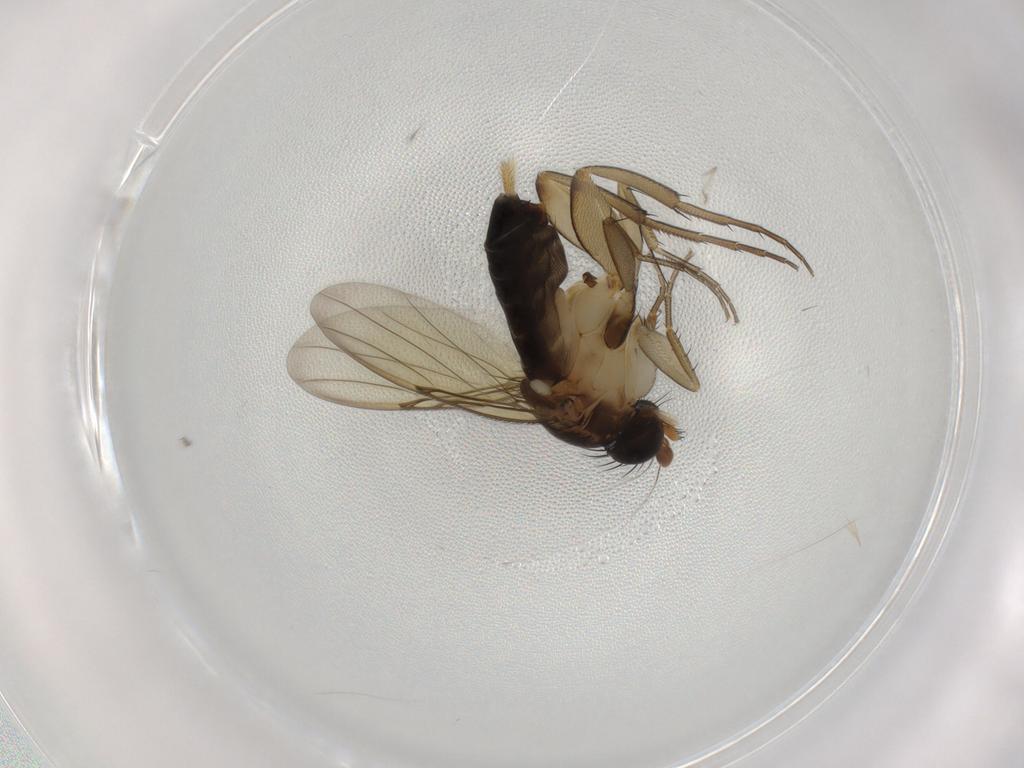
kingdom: Animalia
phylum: Arthropoda
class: Insecta
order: Diptera
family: Phoridae
